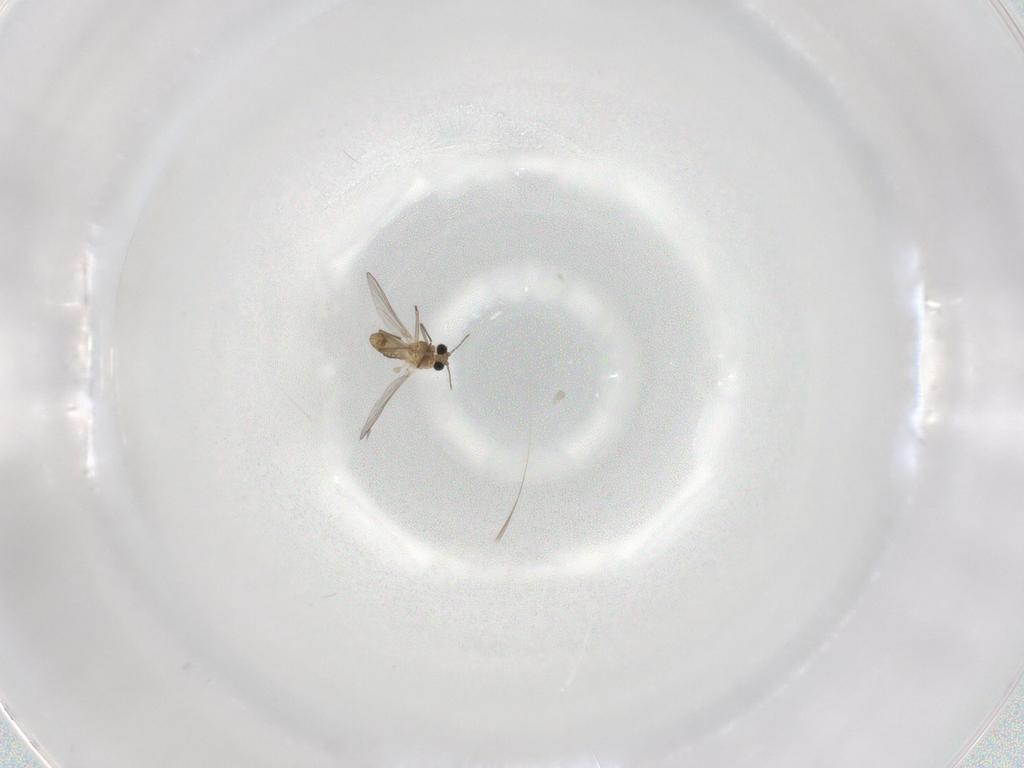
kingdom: Animalia
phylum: Arthropoda
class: Insecta
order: Diptera
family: Chironomidae
